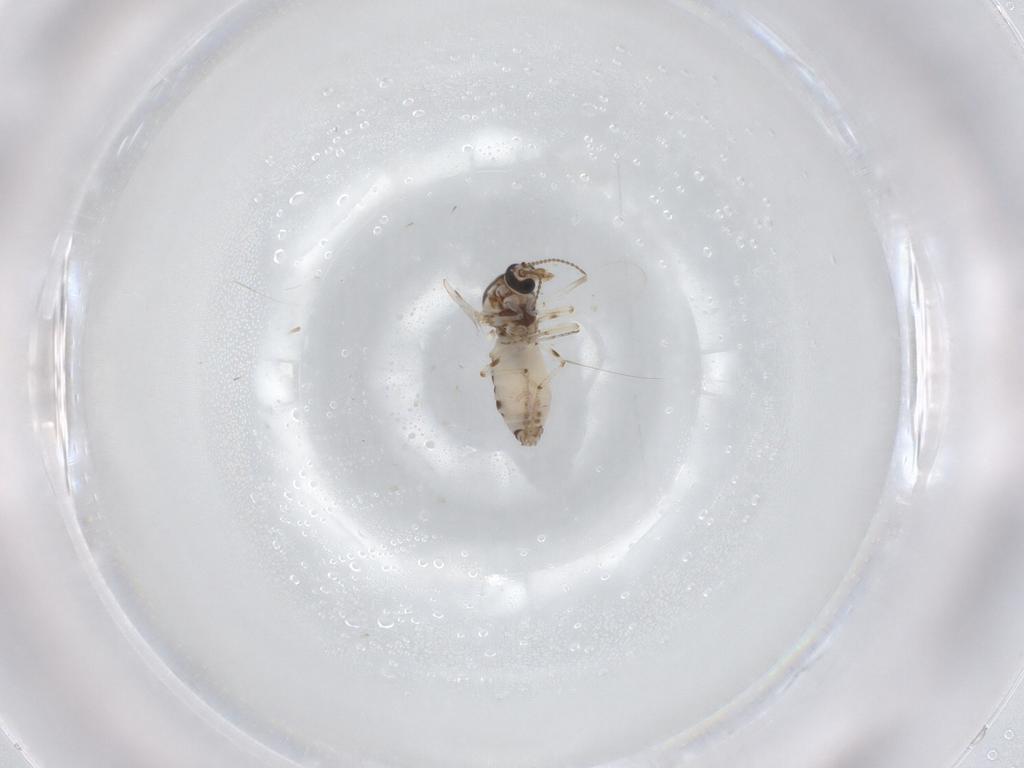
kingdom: Animalia
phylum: Arthropoda
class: Insecta
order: Diptera
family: Ceratopogonidae
